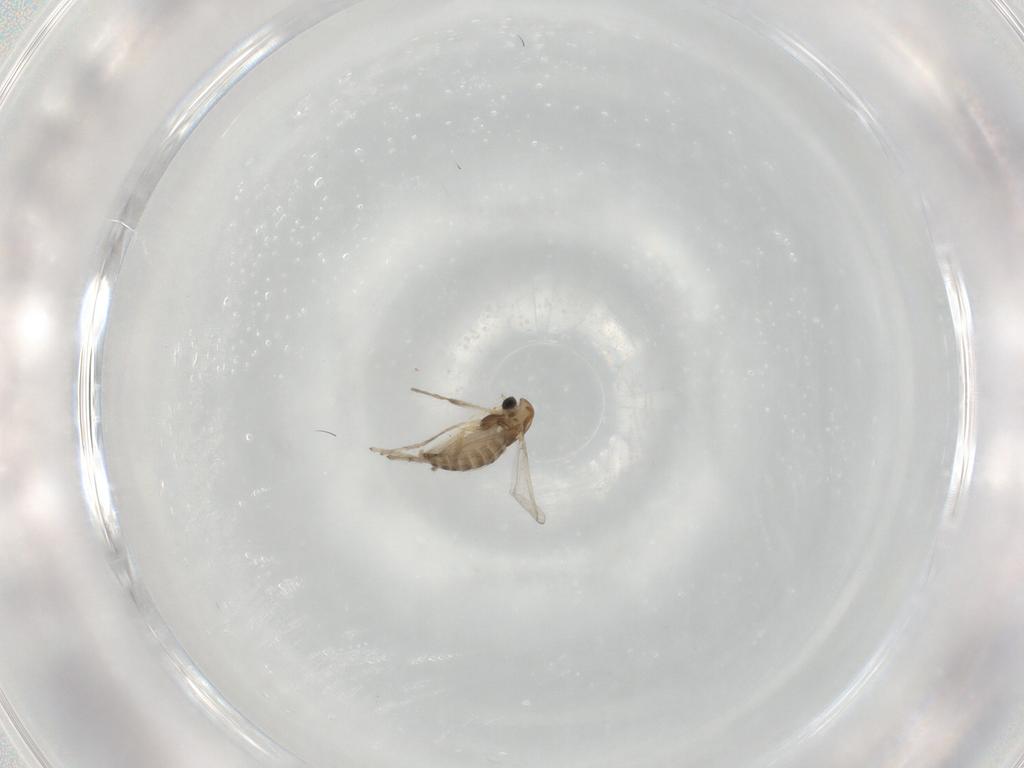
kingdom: Animalia
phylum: Arthropoda
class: Insecta
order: Diptera
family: Chironomidae
